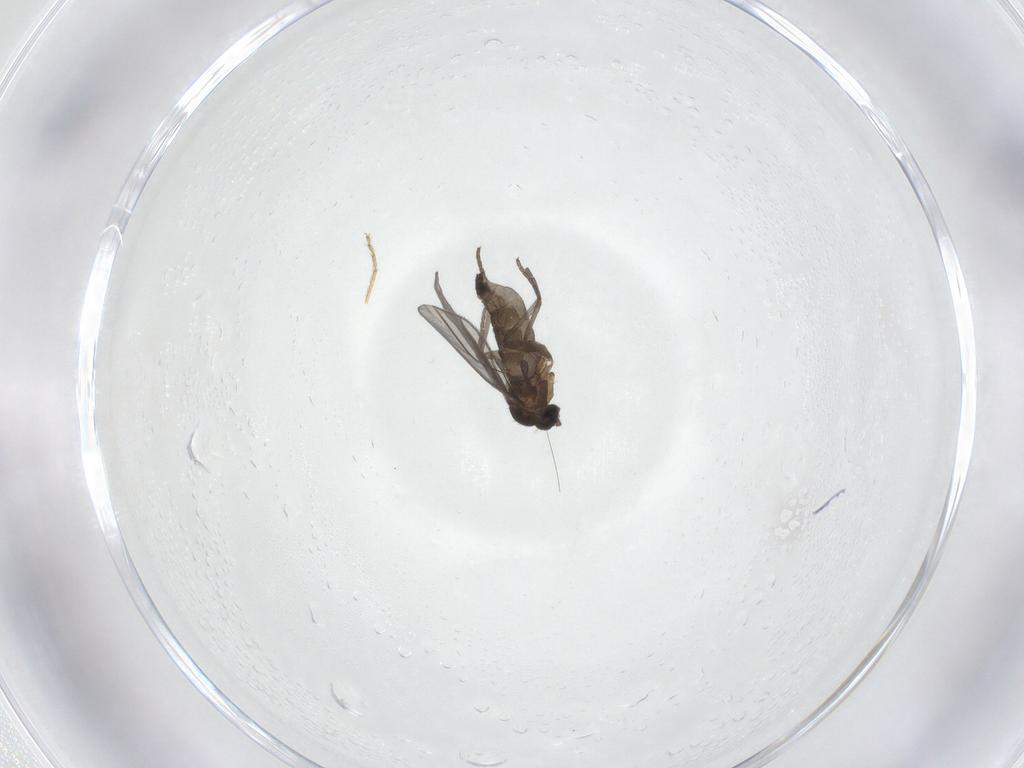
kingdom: Animalia
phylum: Arthropoda
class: Insecta
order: Diptera
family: Ceratopogonidae
